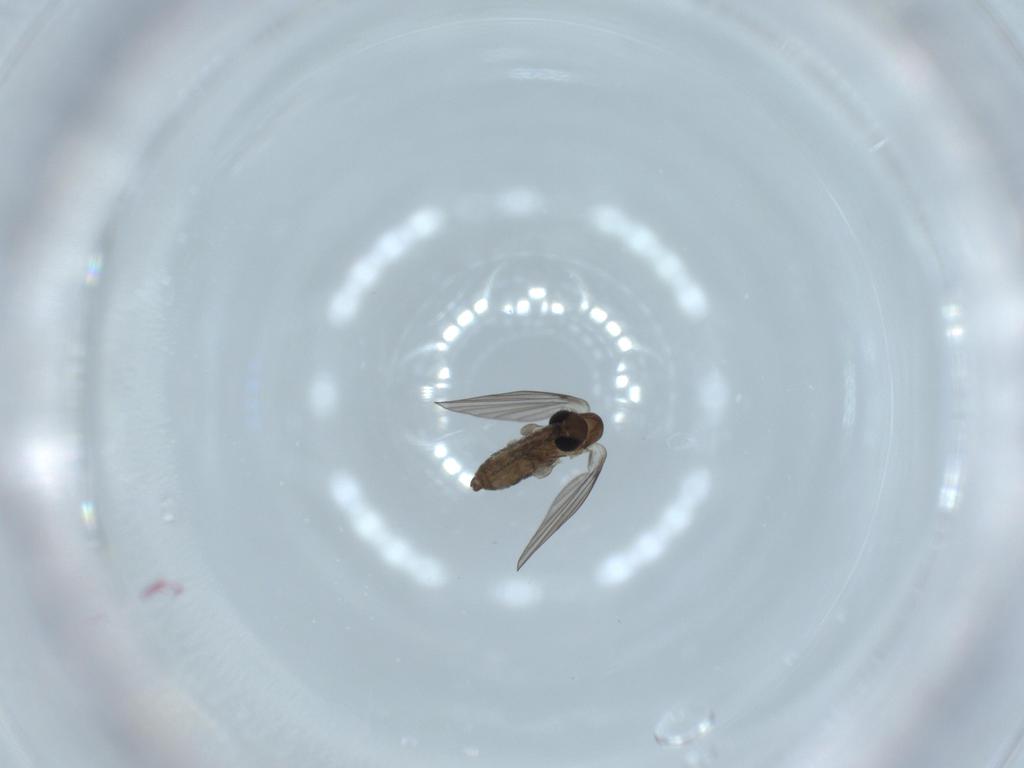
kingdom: Animalia
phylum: Arthropoda
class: Insecta
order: Diptera
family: Psychodidae
